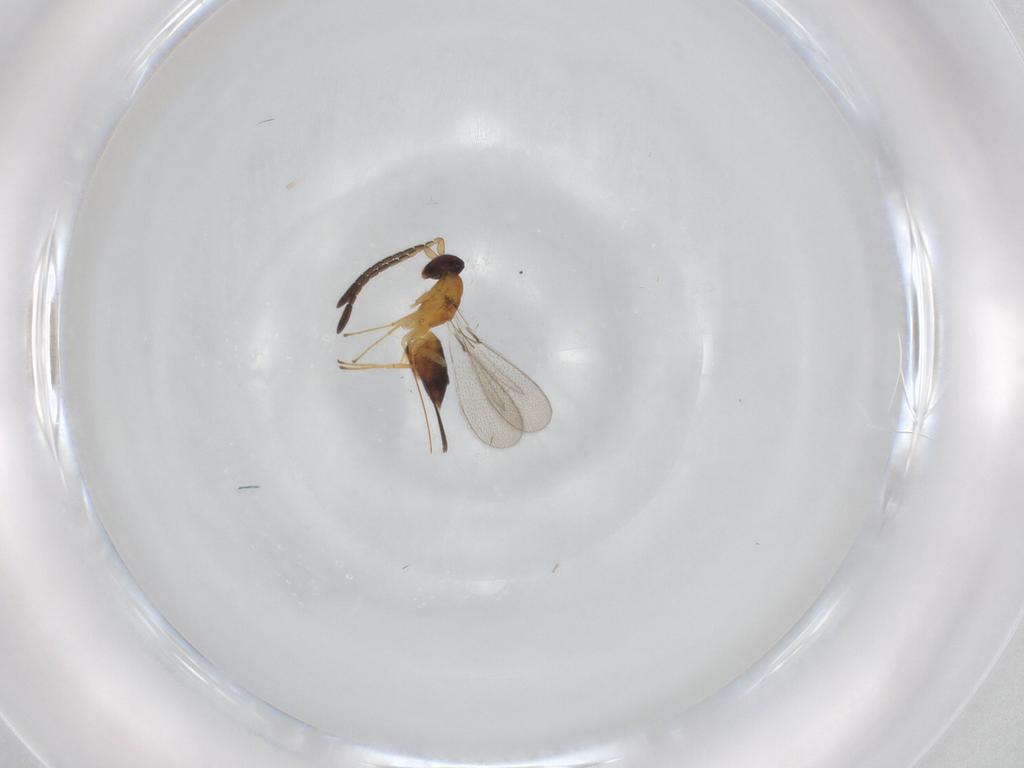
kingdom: Animalia
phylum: Arthropoda
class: Insecta
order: Hymenoptera
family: Mymaridae
